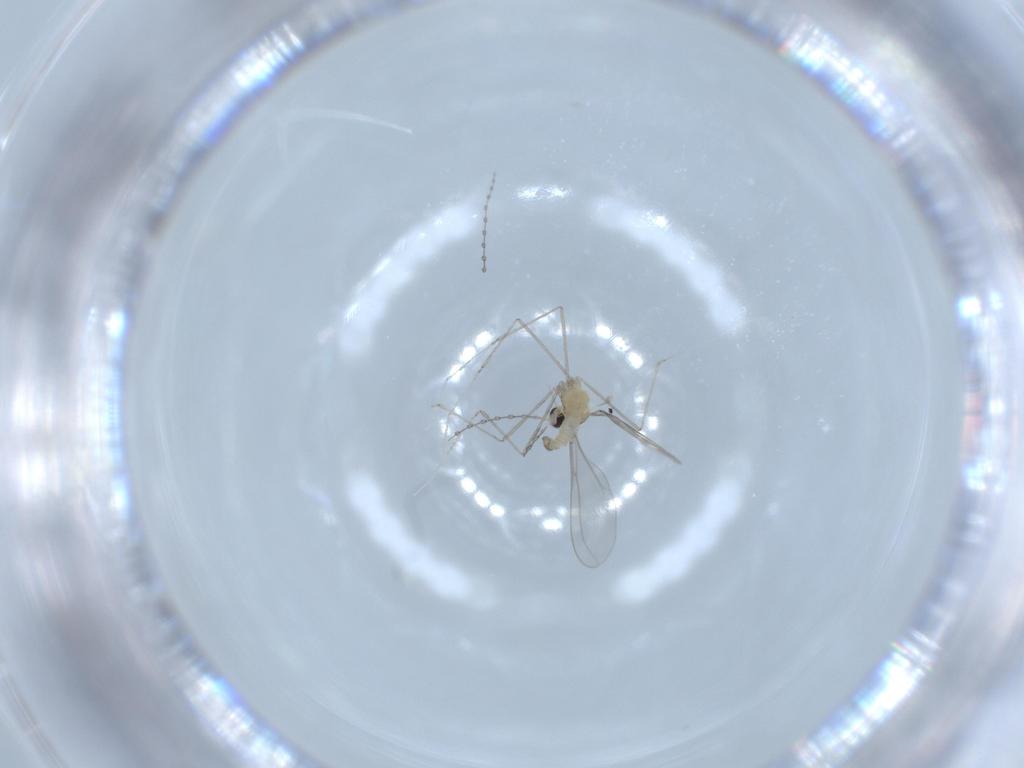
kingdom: Animalia
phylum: Arthropoda
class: Insecta
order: Diptera
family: Cecidomyiidae
